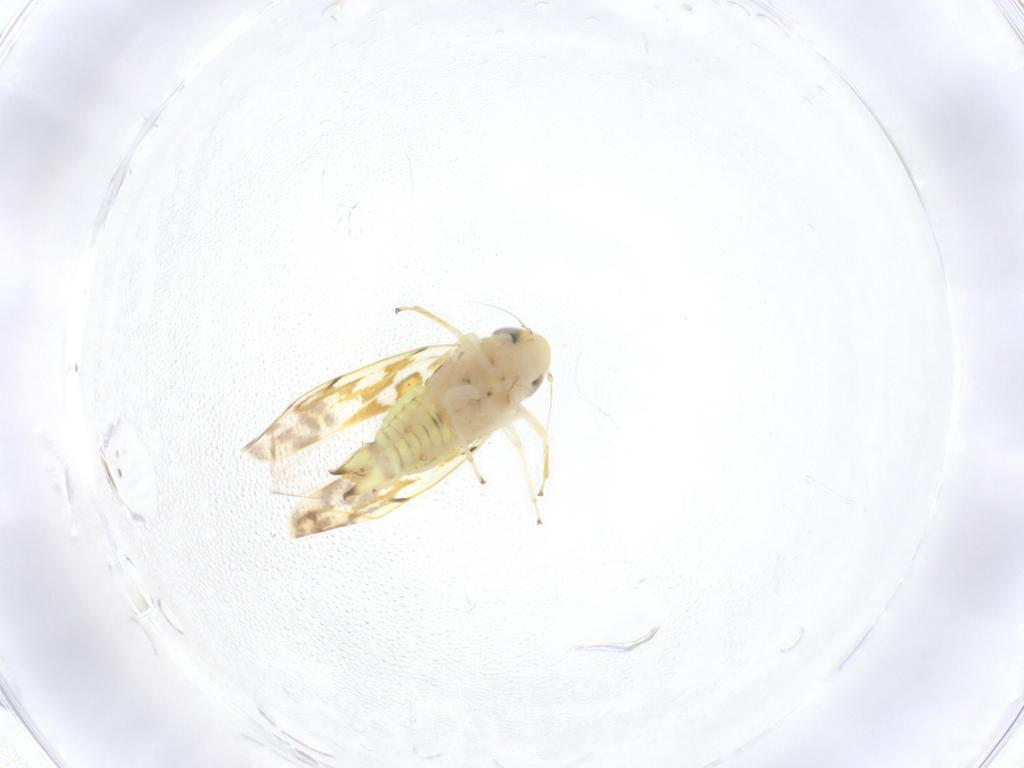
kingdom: Animalia
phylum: Arthropoda
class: Insecta
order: Hemiptera
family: Cicadellidae
